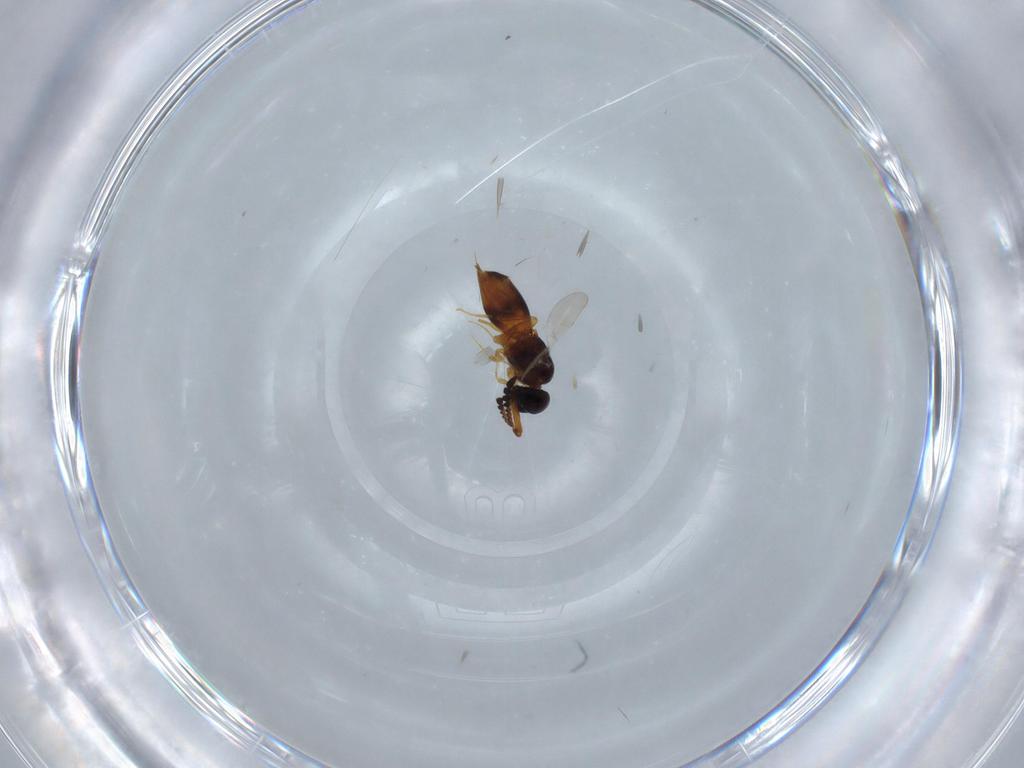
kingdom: Animalia
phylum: Arthropoda
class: Insecta
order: Hymenoptera
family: Ceraphronidae
